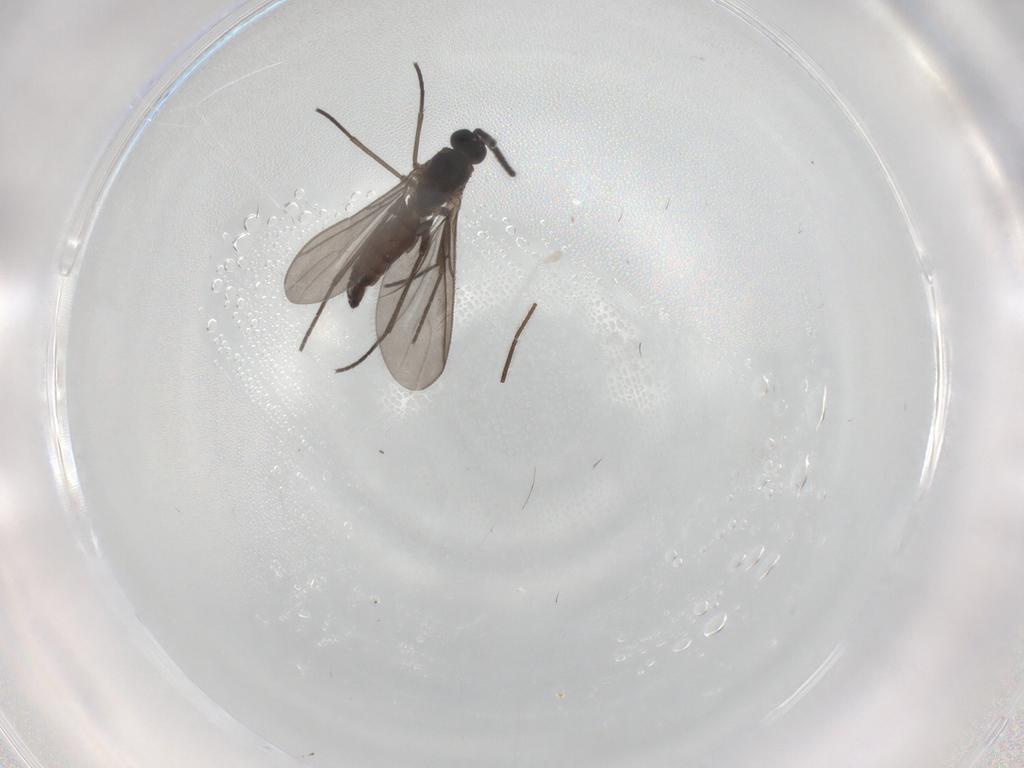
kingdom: Animalia
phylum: Arthropoda
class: Insecta
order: Diptera
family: Sciaridae
